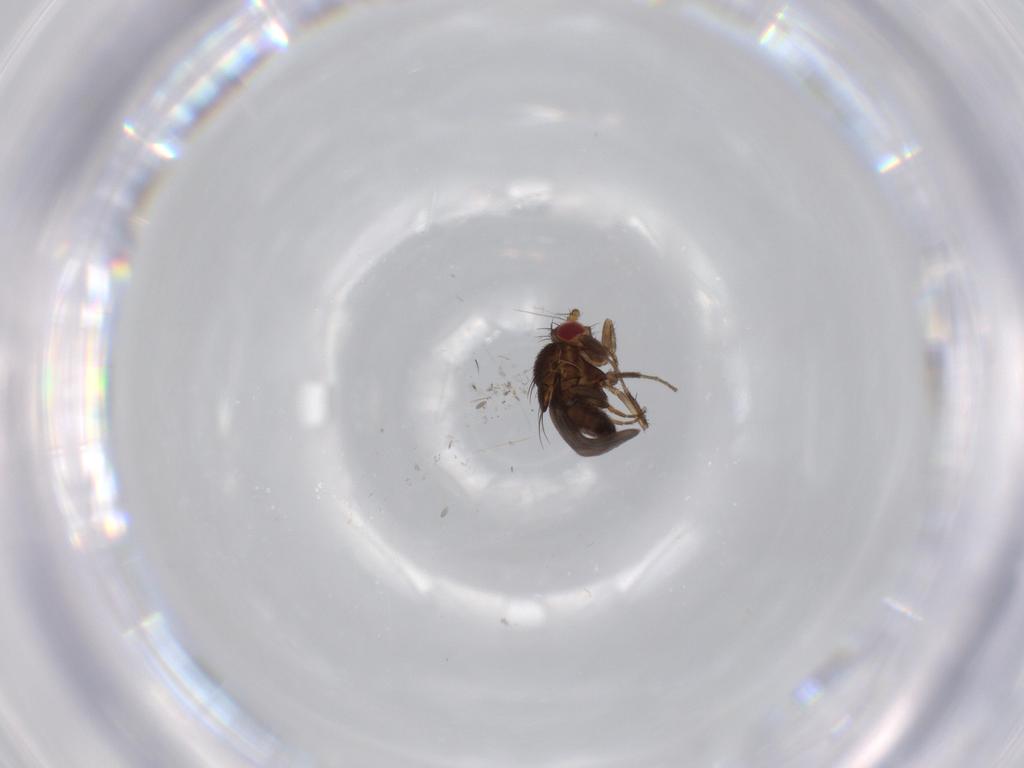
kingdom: Animalia
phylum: Arthropoda
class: Insecta
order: Diptera
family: Sphaeroceridae
